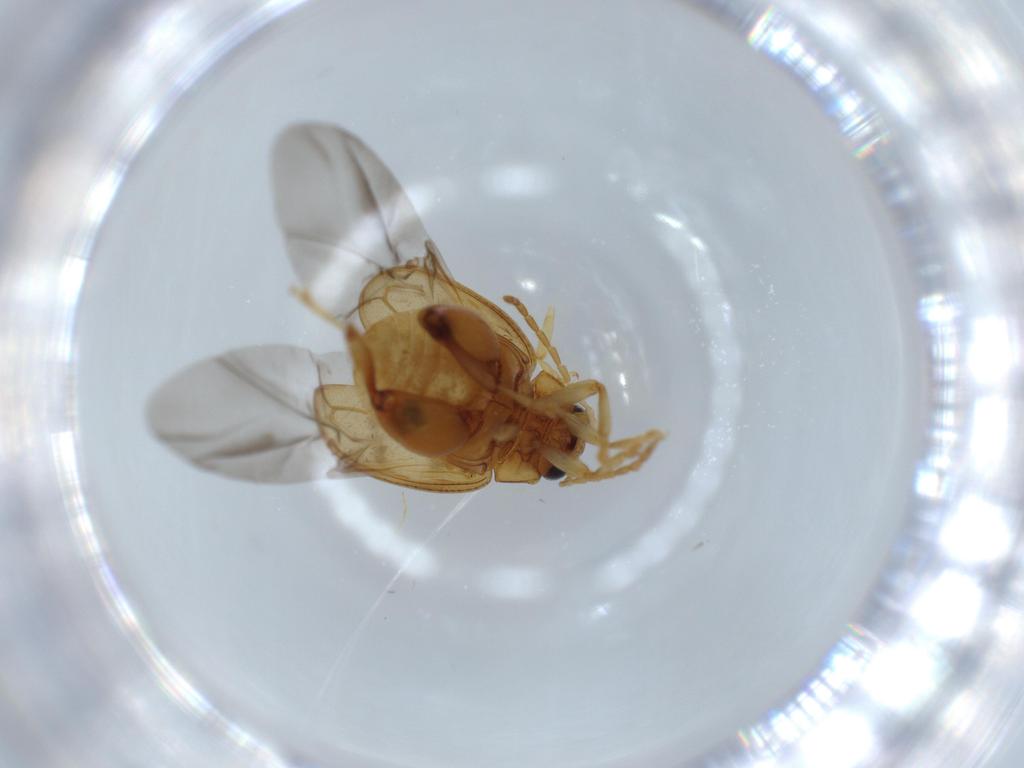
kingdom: Animalia
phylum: Arthropoda
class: Insecta
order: Coleoptera
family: Chrysomelidae
